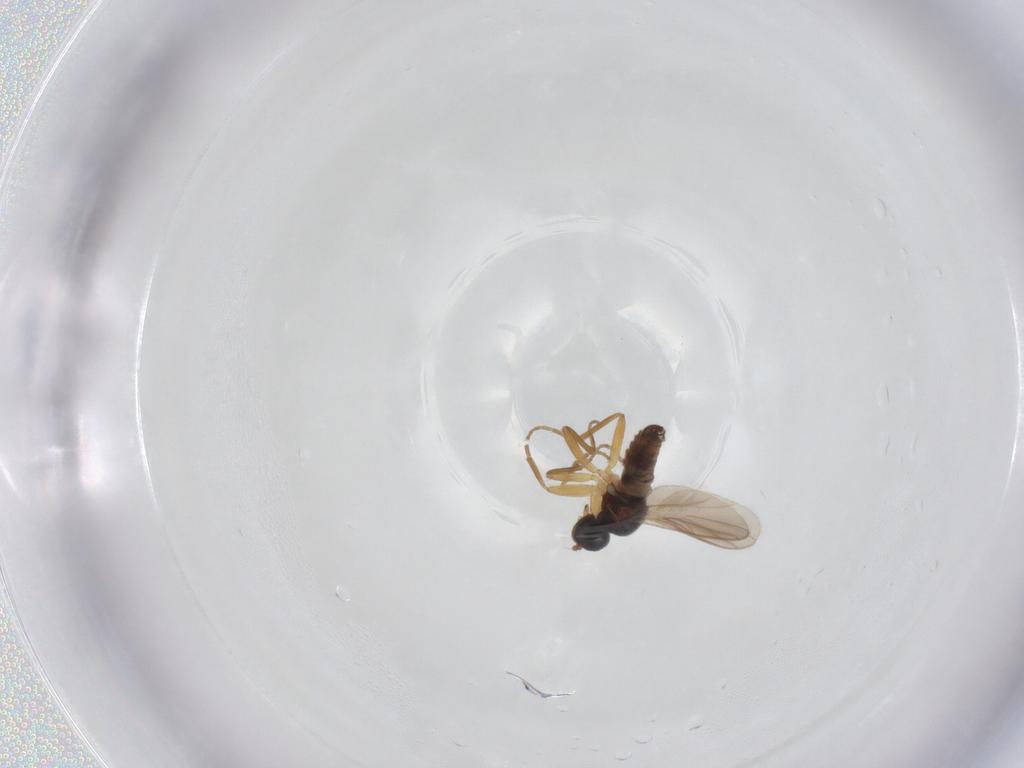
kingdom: Animalia
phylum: Arthropoda
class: Insecta
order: Diptera
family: Hybotidae
